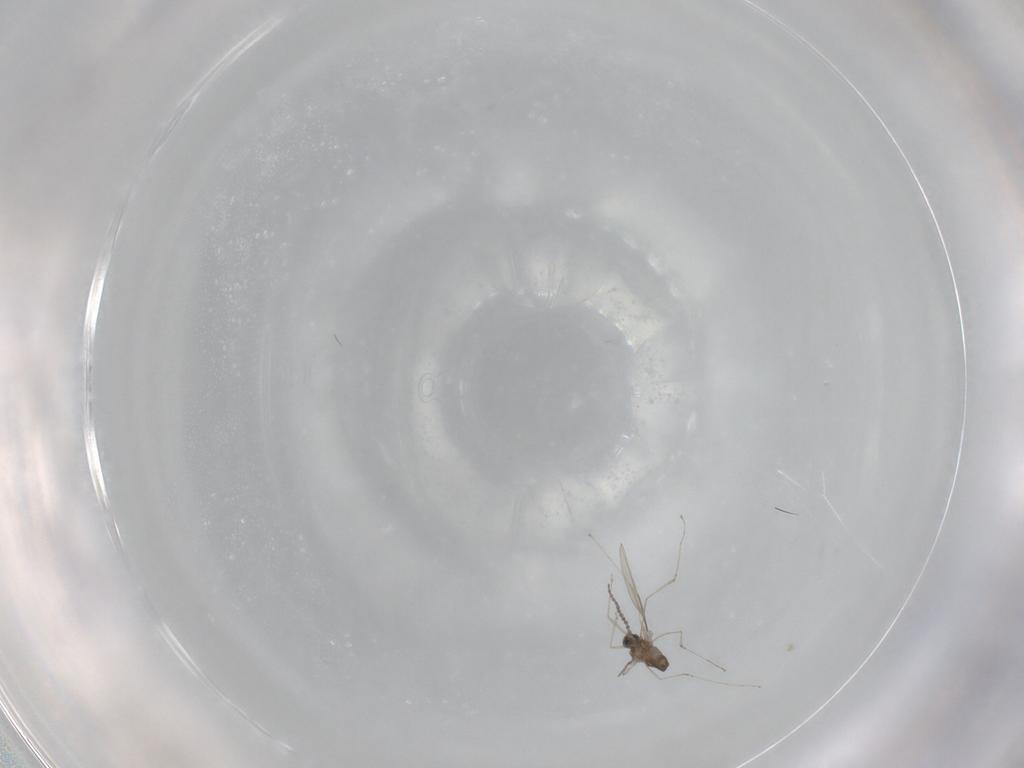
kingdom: Animalia
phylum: Arthropoda
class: Insecta
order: Diptera
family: Cecidomyiidae
